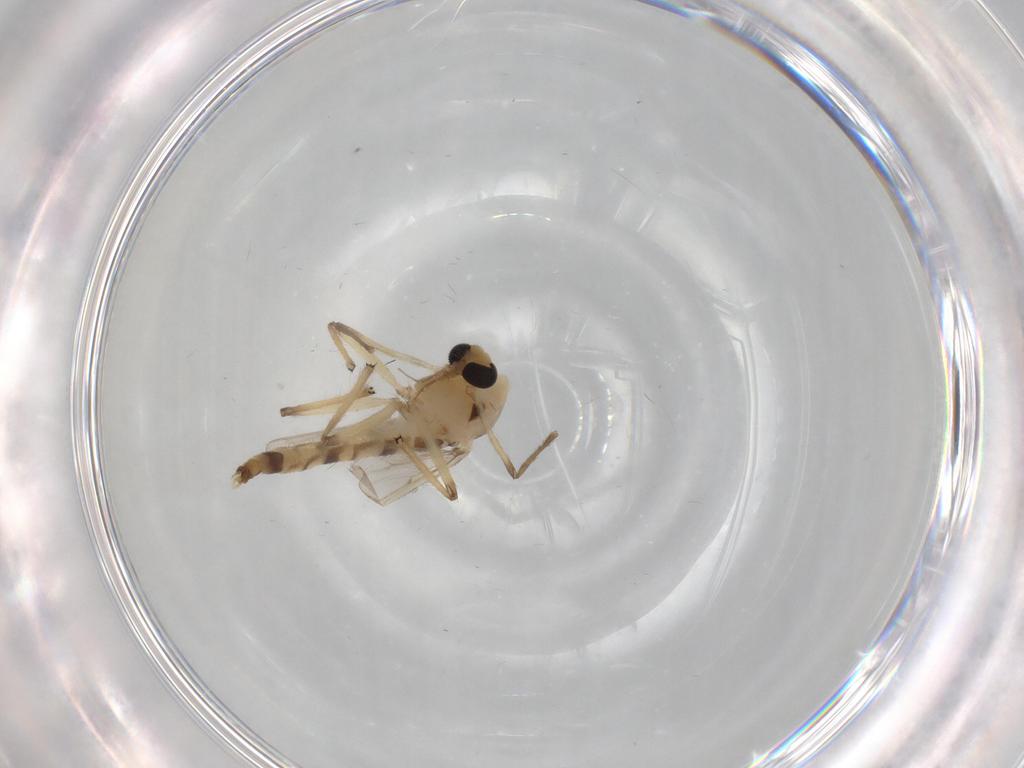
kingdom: Animalia
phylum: Arthropoda
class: Insecta
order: Diptera
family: Chironomidae
